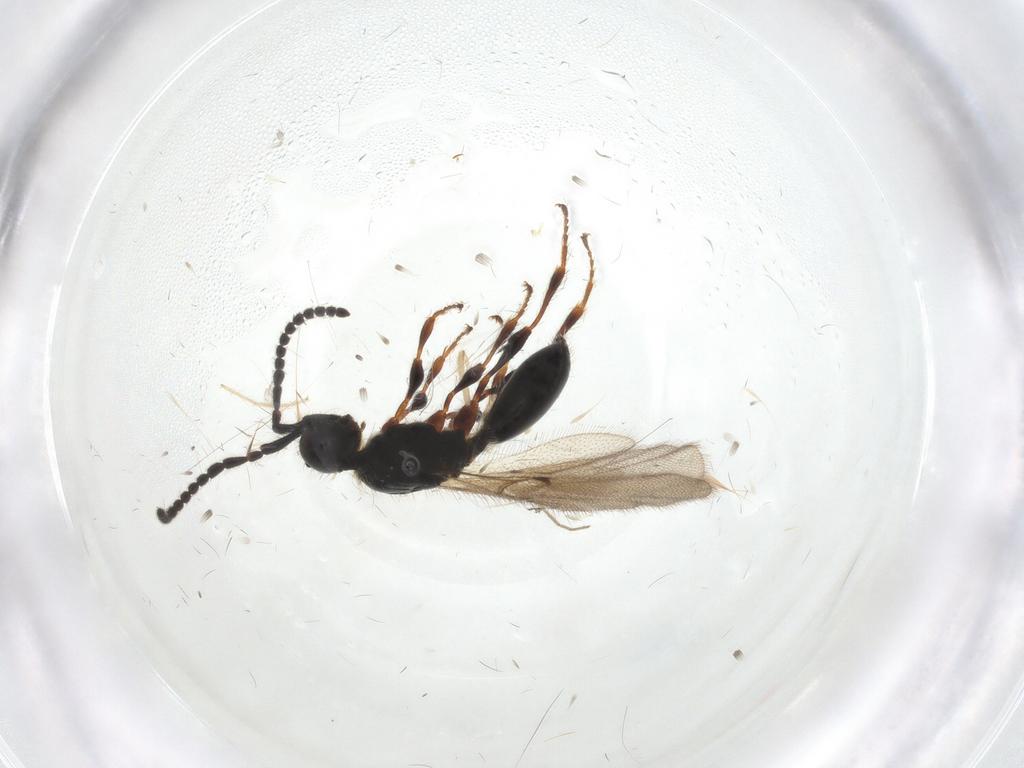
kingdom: Animalia
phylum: Arthropoda
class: Insecta
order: Hymenoptera
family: Diapriidae
